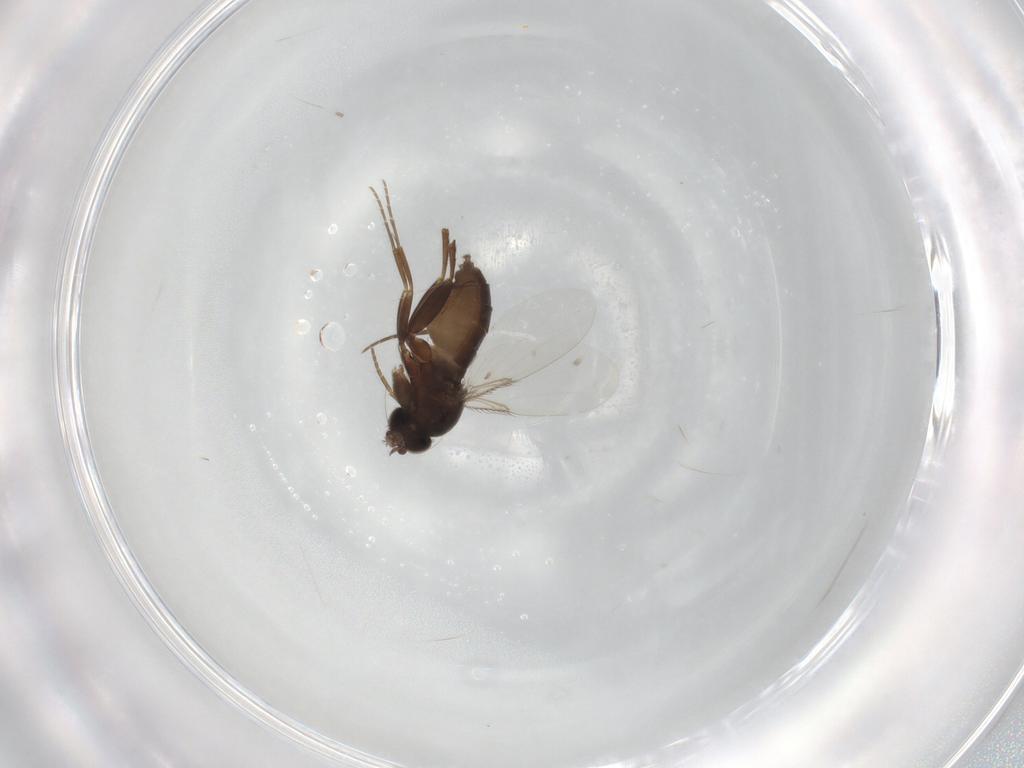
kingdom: Animalia
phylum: Arthropoda
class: Insecta
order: Diptera
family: Phoridae
